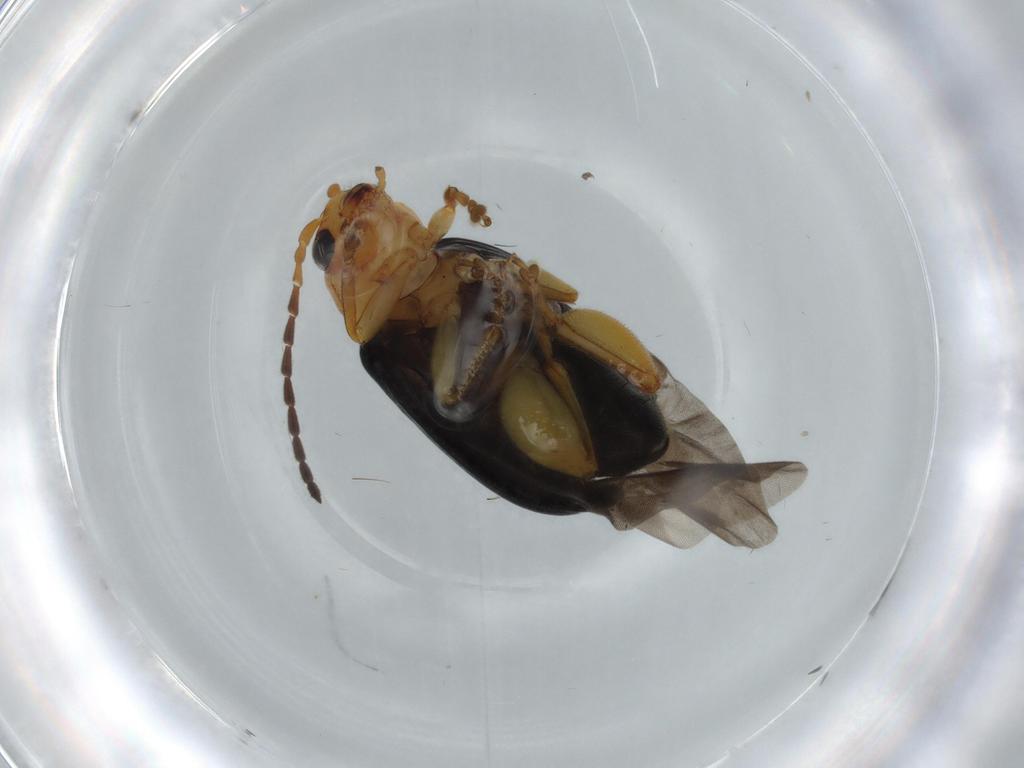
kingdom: Animalia
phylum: Arthropoda
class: Insecta
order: Coleoptera
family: Chrysomelidae
